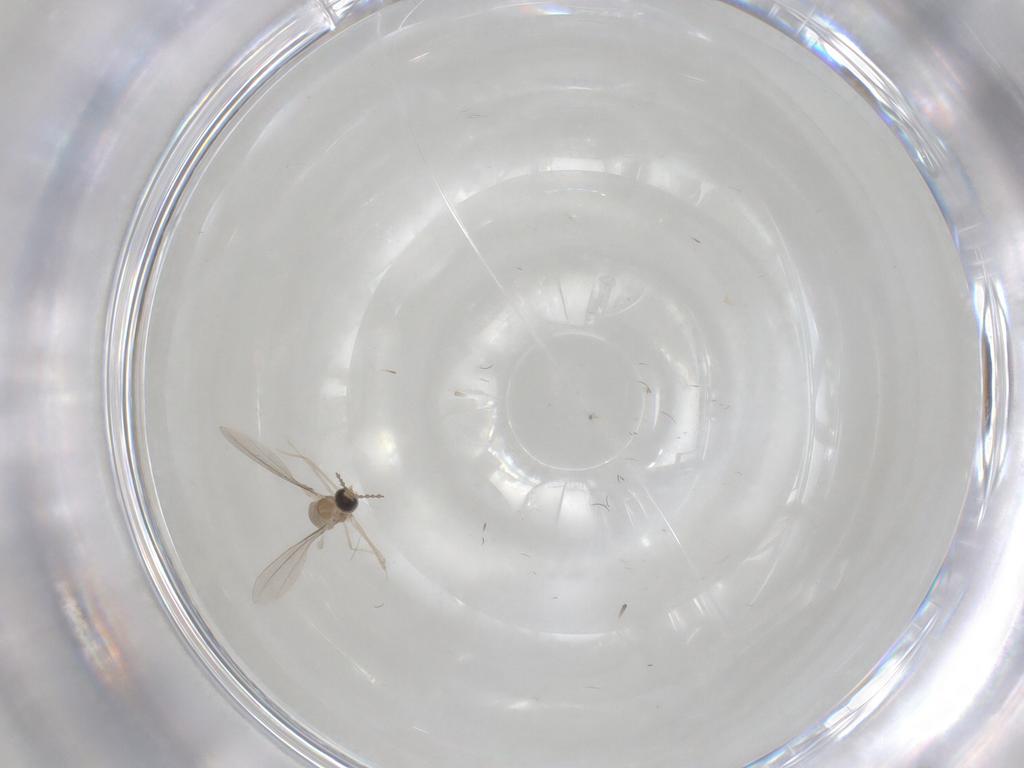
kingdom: Animalia
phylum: Arthropoda
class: Insecta
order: Diptera
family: Cecidomyiidae
